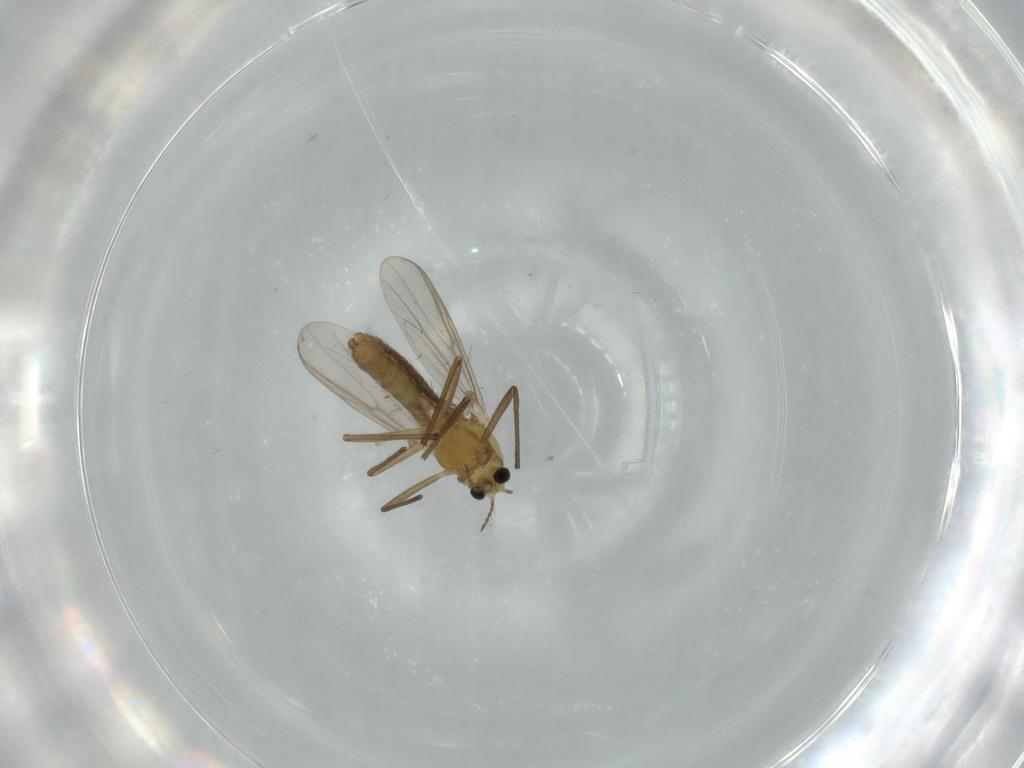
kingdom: Animalia
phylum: Arthropoda
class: Insecta
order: Diptera
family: Chironomidae
